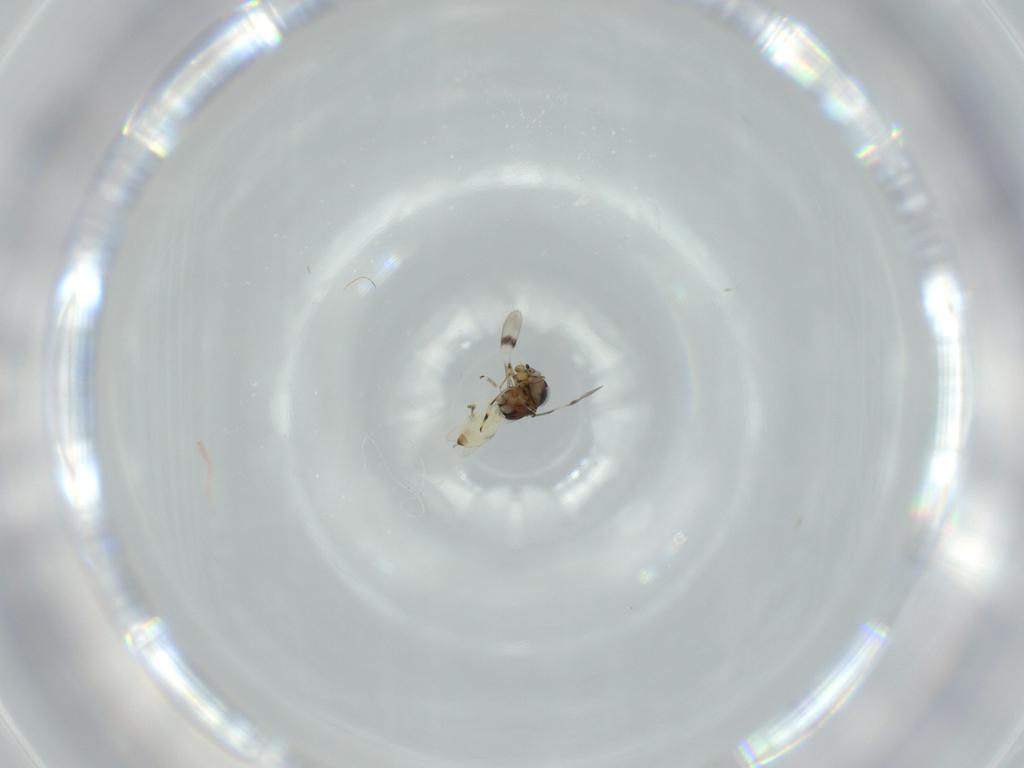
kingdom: Animalia
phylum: Arthropoda
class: Insecta
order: Hymenoptera
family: Scelionidae
